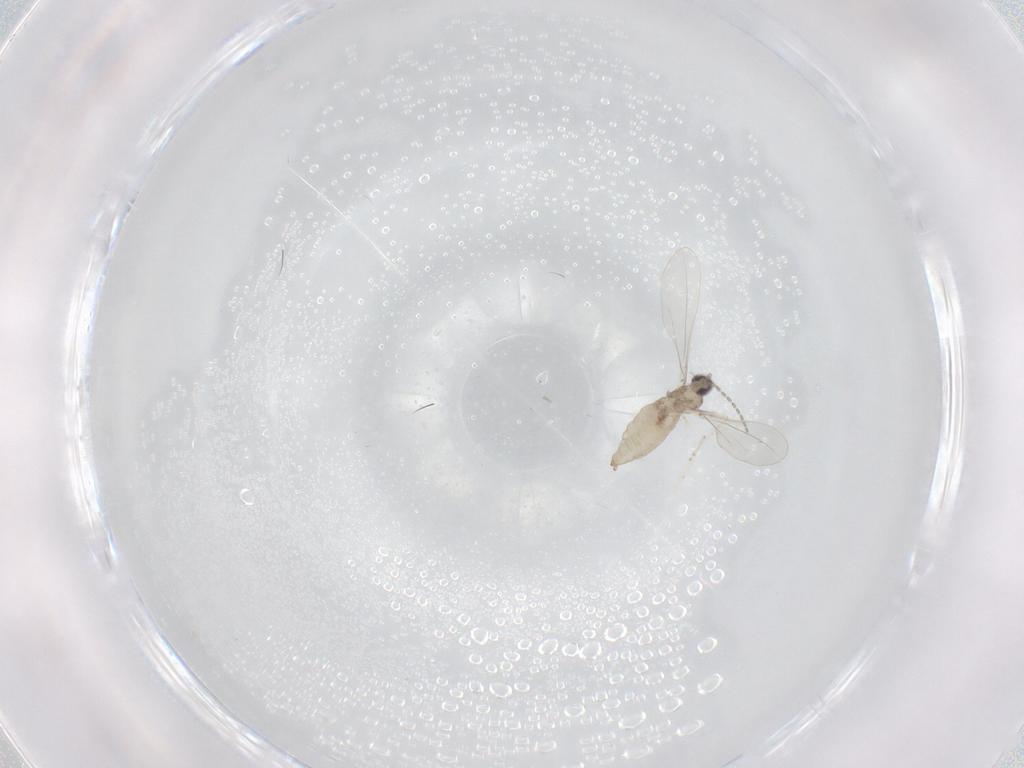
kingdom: Animalia
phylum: Arthropoda
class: Insecta
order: Diptera
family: Cecidomyiidae
